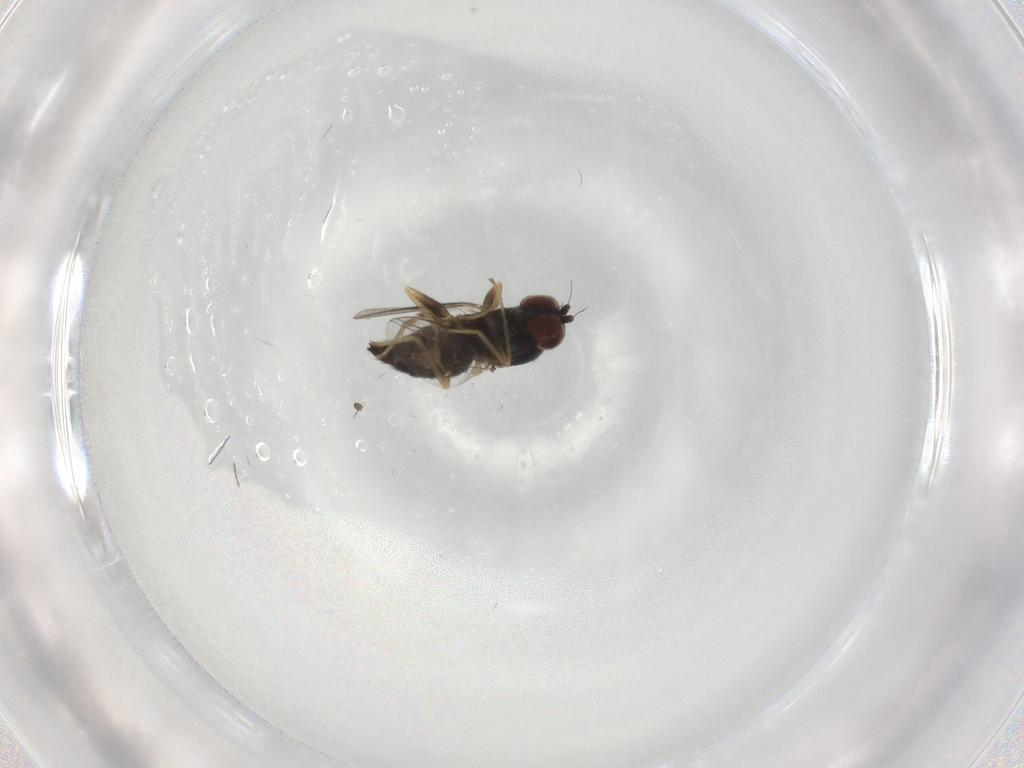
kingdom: Animalia
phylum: Arthropoda
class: Insecta
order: Diptera
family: Dolichopodidae
